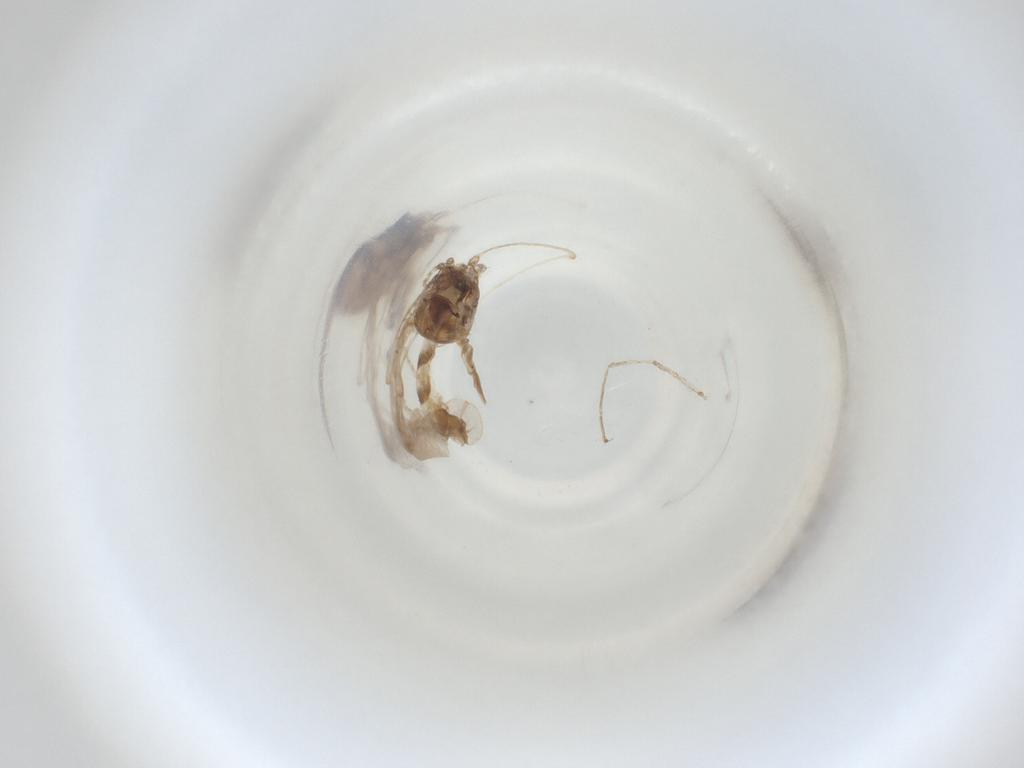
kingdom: Animalia
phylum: Arthropoda
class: Insecta
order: Diptera
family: Cecidomyiidae
